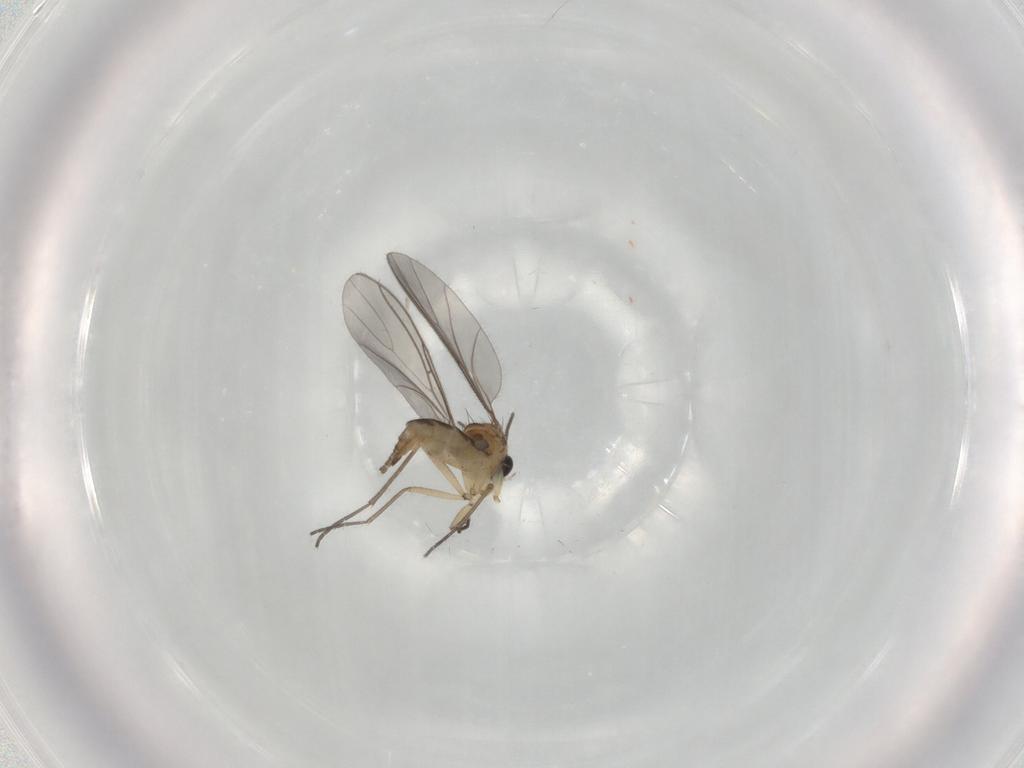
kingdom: Animalia
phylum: Arthropoda
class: Insecta
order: Diptera
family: Sciaridae
